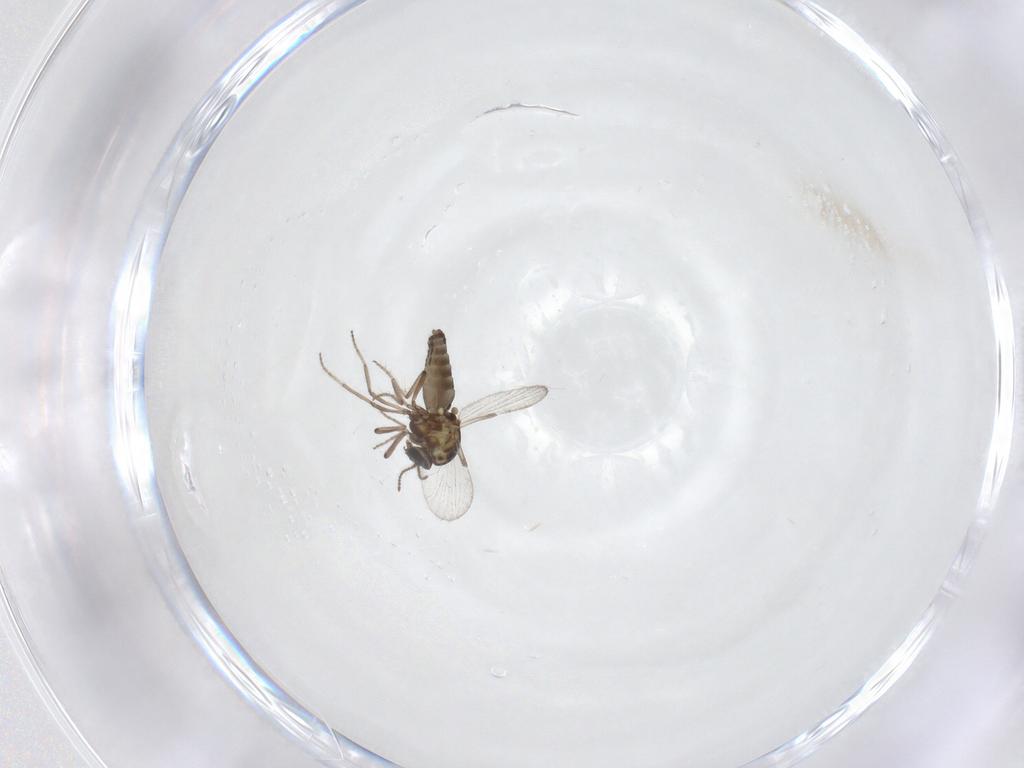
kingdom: Animalia
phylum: Arthropoda
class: Insecta
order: Diptera
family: Ceratopogonidae
